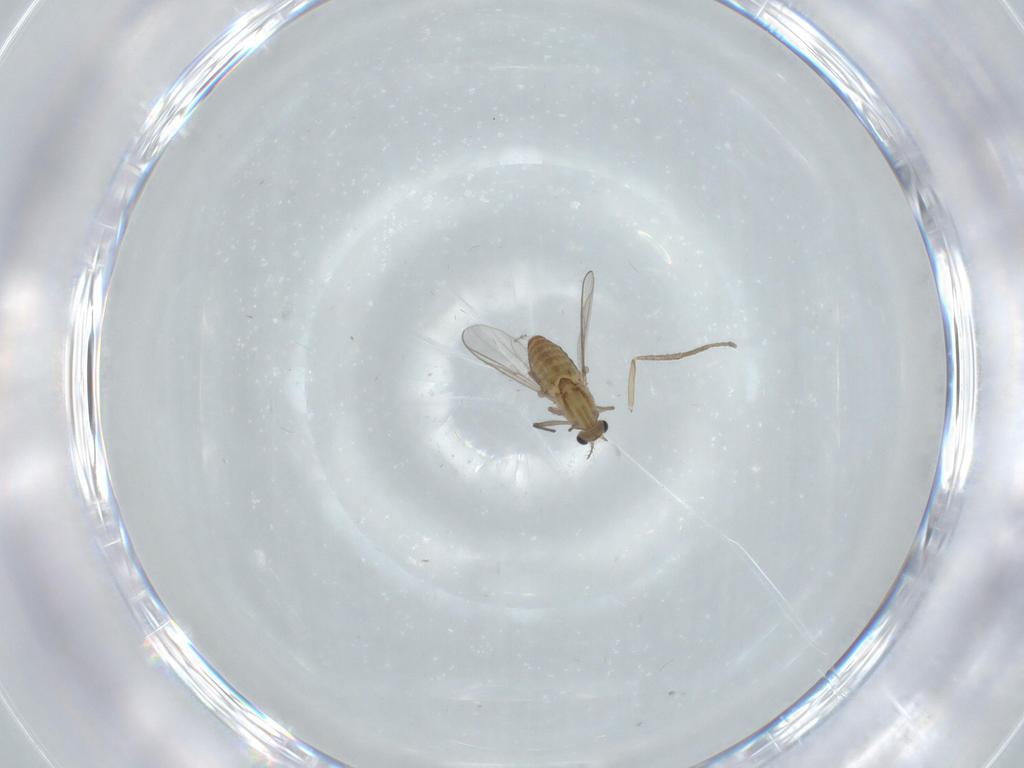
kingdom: Animalia
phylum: Arthropoda
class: Insecta
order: Diptera
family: Chironomidae
